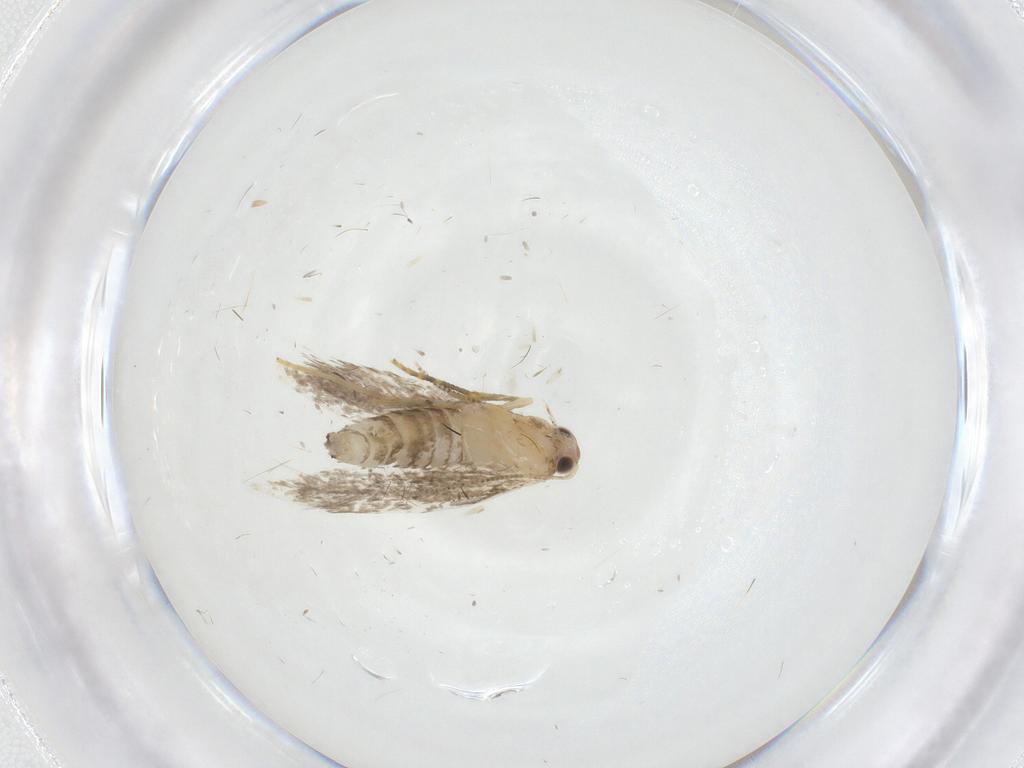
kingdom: Animalia
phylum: Arthropoda
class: Insecta
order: Lepidoptera
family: Tineidae
